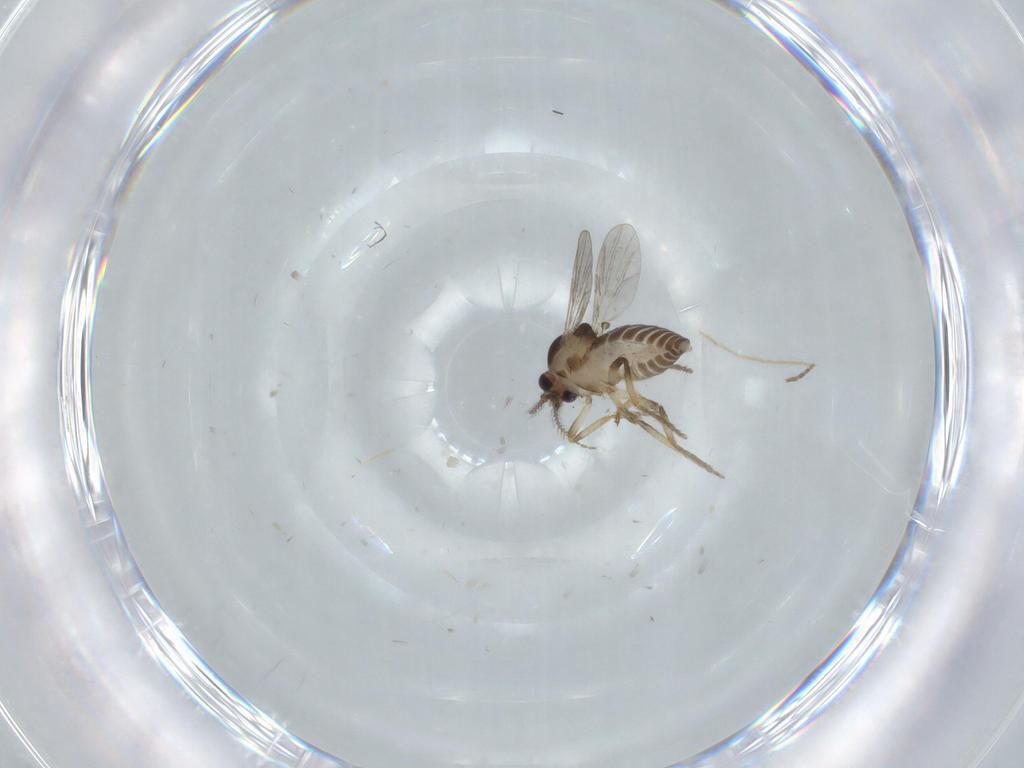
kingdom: Animalia
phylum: Arthropoda
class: Insecta
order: Diptera
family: Ceratopogonidae
